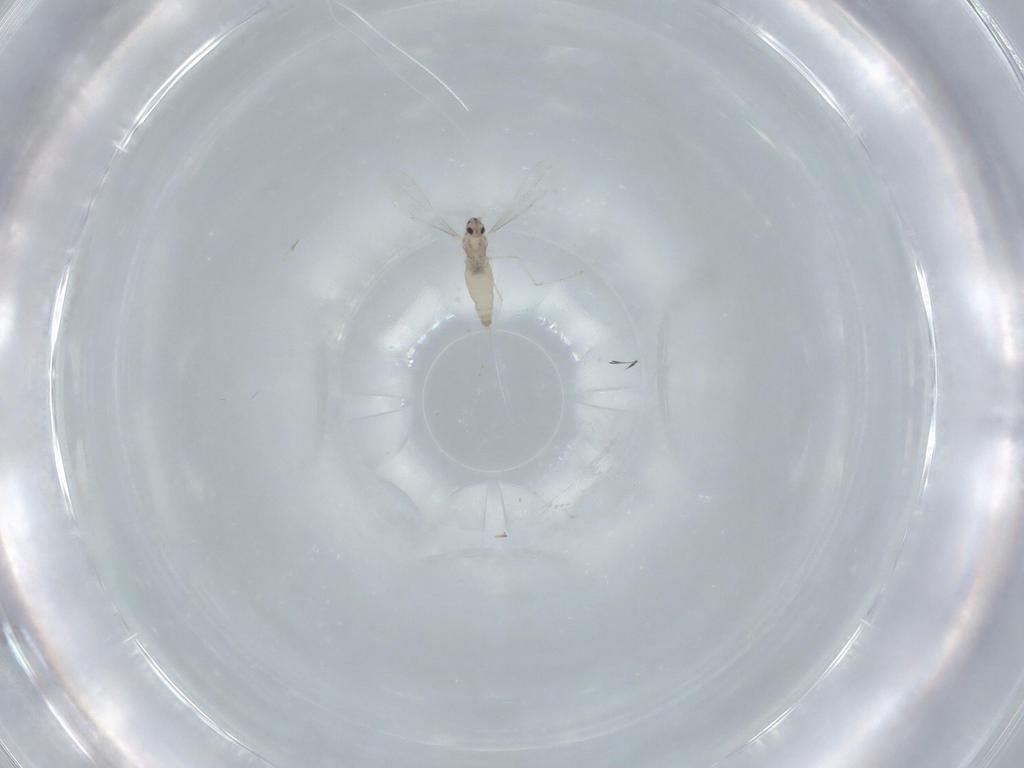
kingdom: Animalia
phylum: Arthropoda
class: Insecta
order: Diptera
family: Cecidomyiidae
